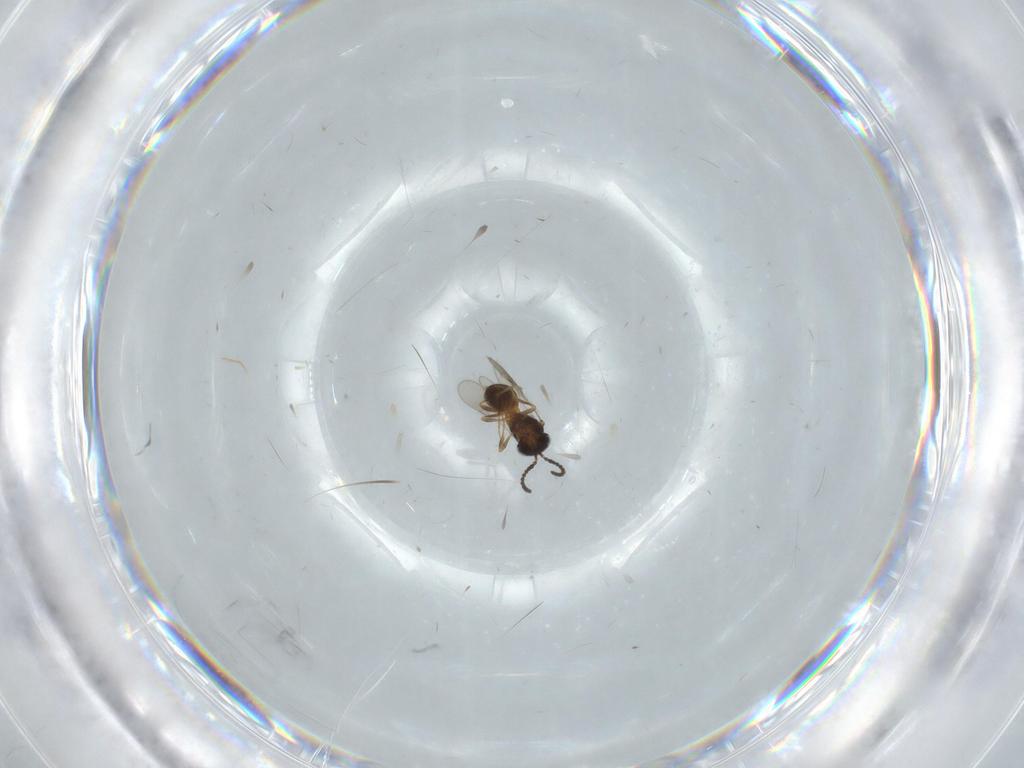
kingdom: Animalia
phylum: Arthropoda
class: Insecta
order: Hymenoptera
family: Scelionidae
